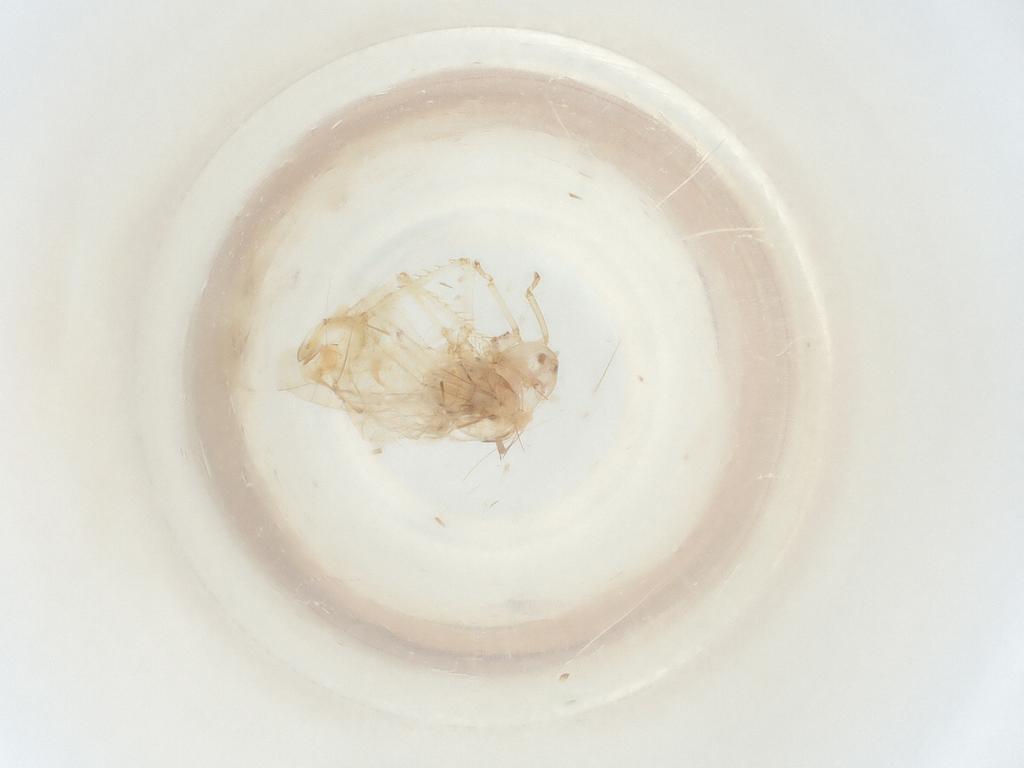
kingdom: Animalia
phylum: Arthropoda
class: Insecta
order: Hemiptera
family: Cicadellidae
